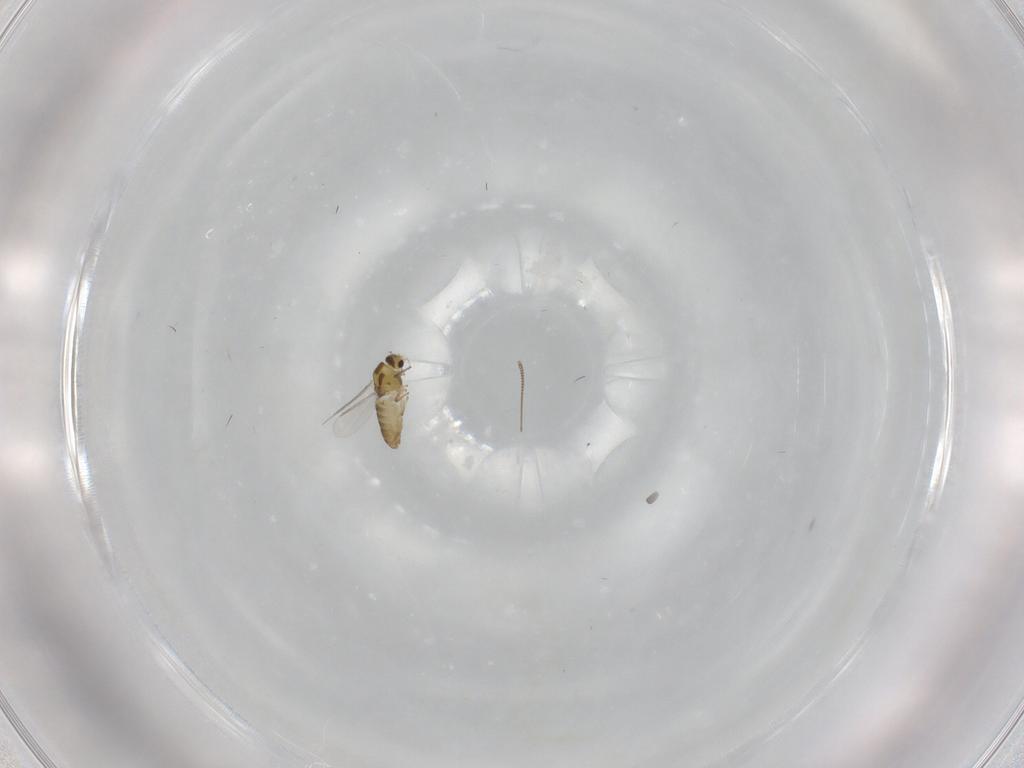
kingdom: Animalia
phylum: Arthropoda
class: Insecta
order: Diptera
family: Chironomidae
